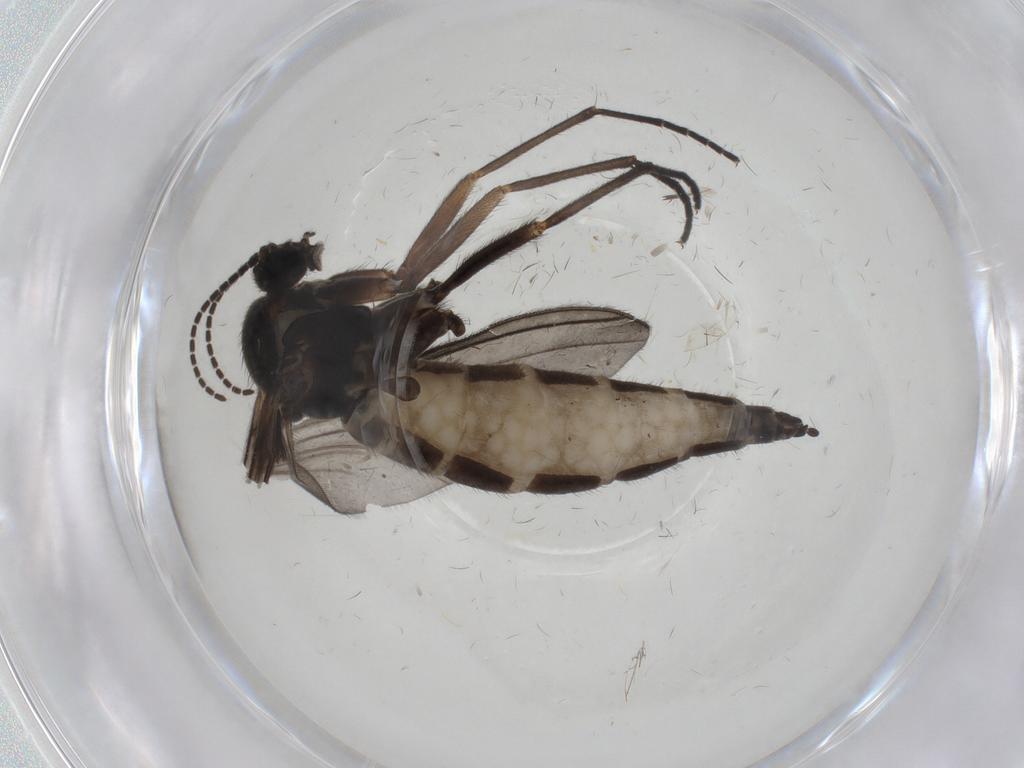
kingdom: Animalia
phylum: Arthropoda
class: Insecta
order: Diptera
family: Sciaridae
